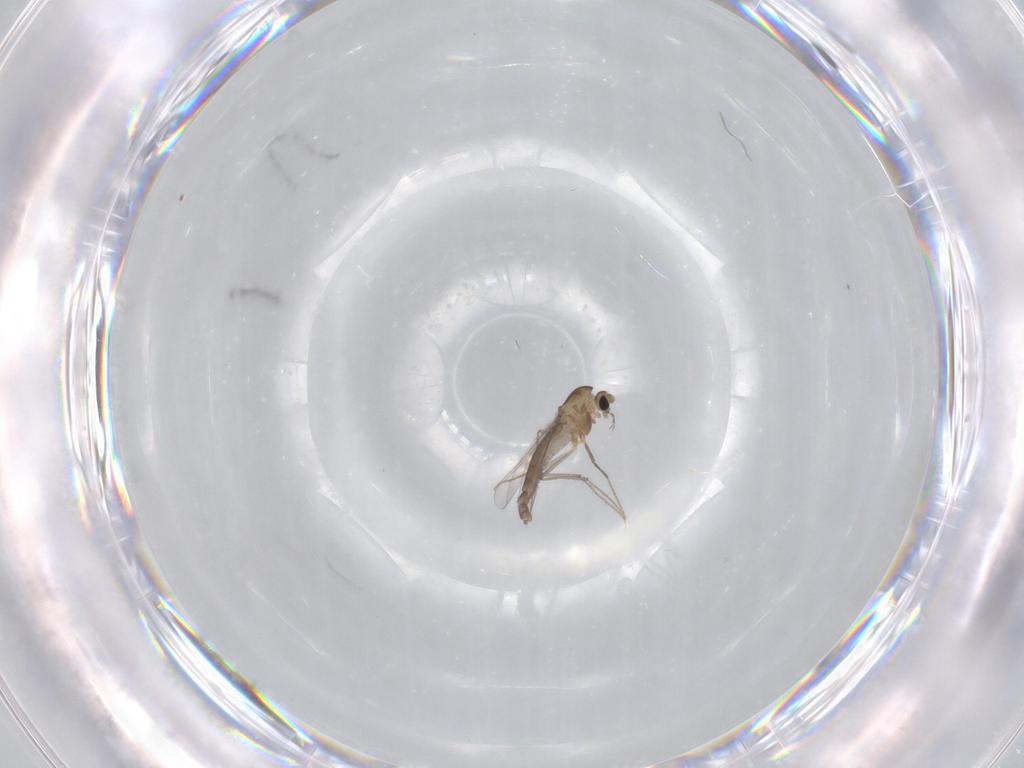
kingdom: Animalia
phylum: Arthropoda
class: Insecta
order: Diptera
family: Chironomidae
